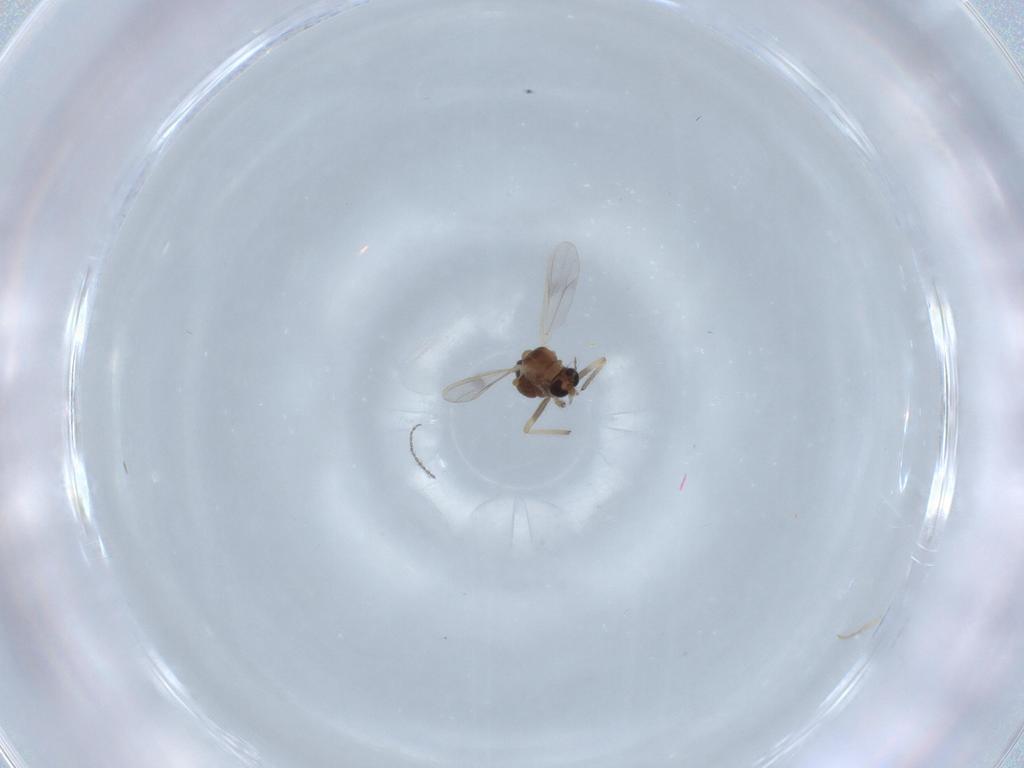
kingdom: Animalia
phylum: Arthropoda
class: Insecta
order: Diptera
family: Chironomidae
